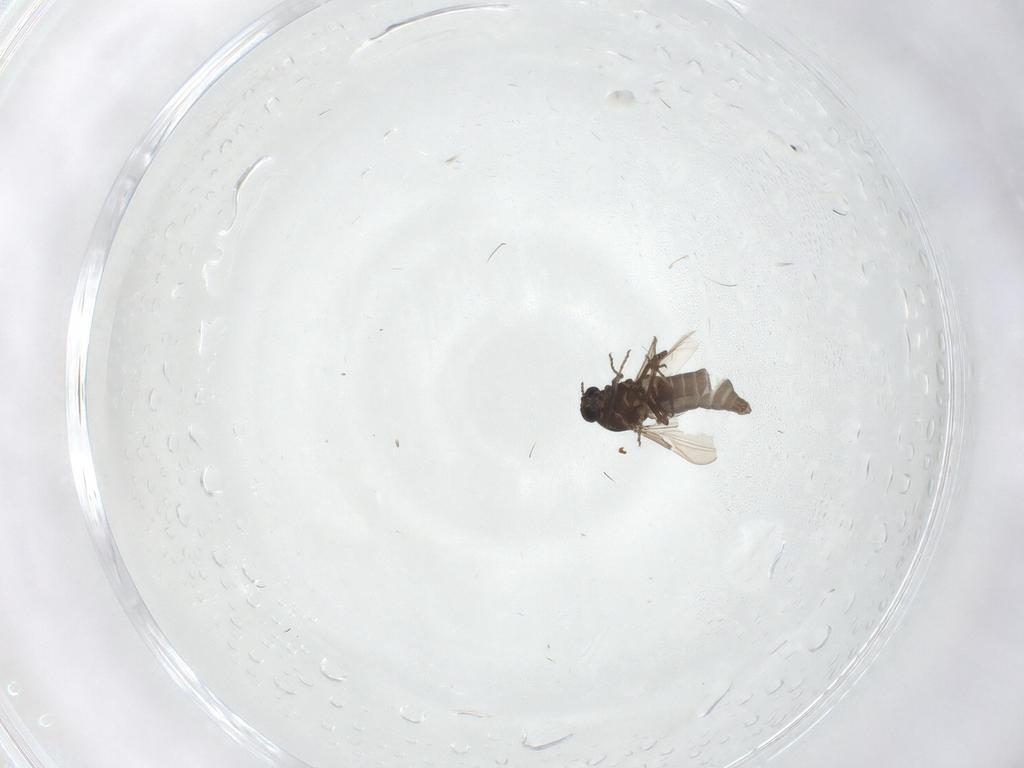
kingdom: Animalia
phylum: Arthropoda
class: Insecta
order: Diptera
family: Ceratopogonidae
